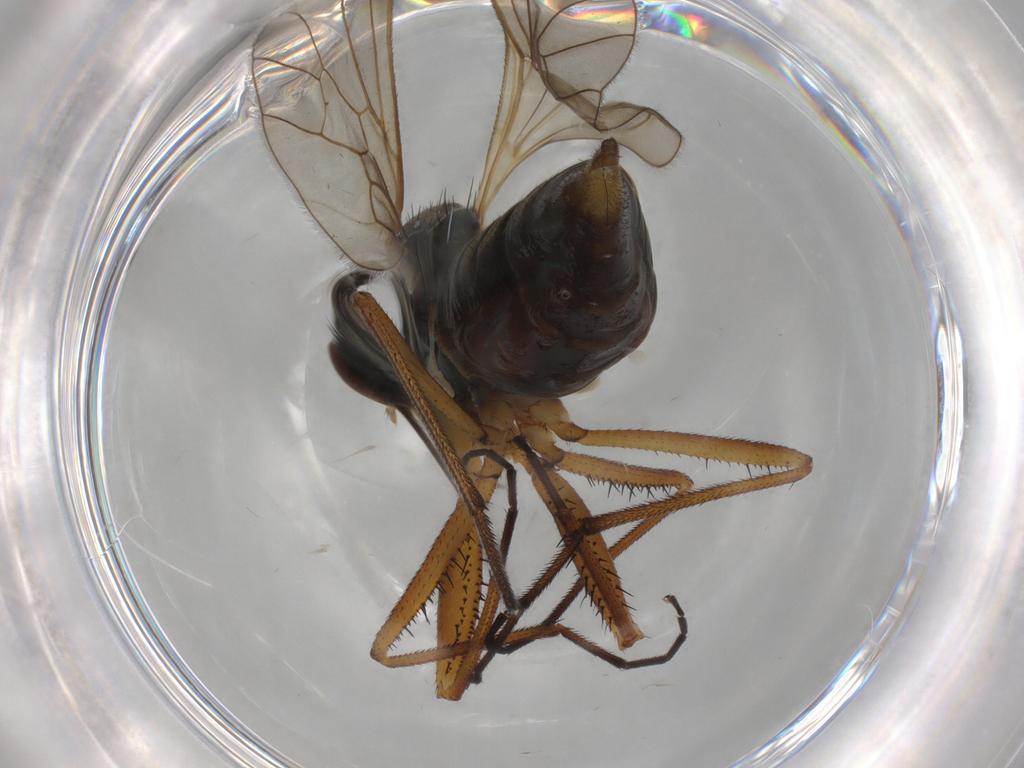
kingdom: Animalia
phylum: Arthropoda
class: Insecta
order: Diptera
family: Empididae
